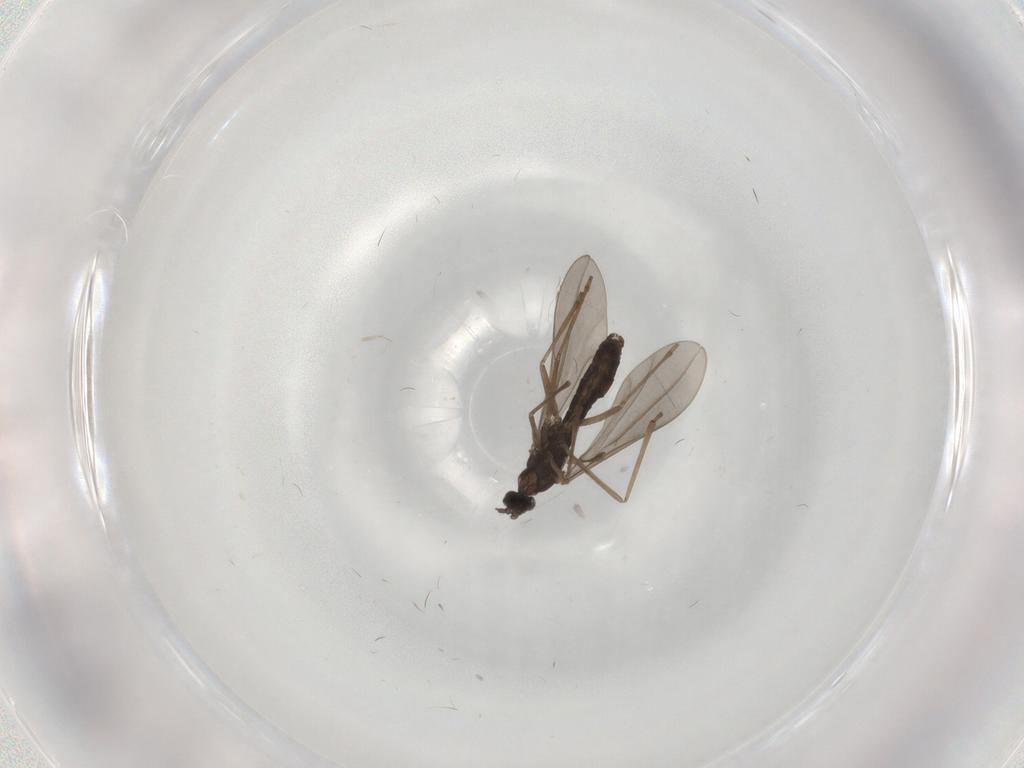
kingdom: Animalia
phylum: Arthropoda
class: Insecta
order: Diptera
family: Cecidomyiidae
